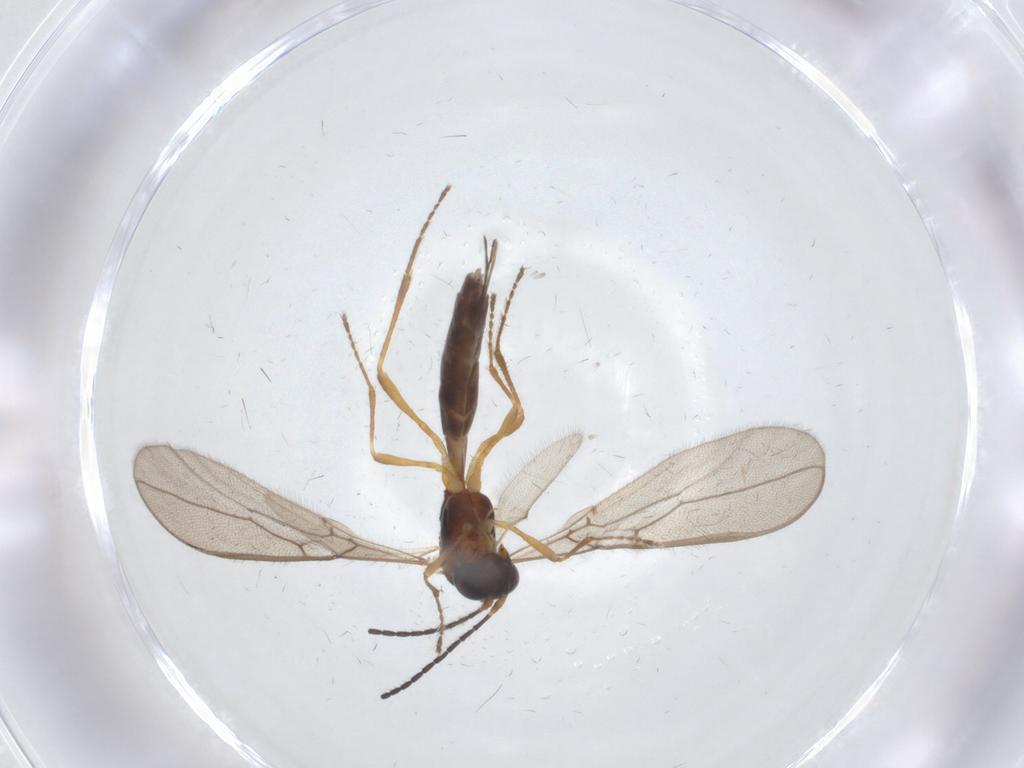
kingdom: Animalia
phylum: Arthropoda
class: Insecta
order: Hymenoptera
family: Braconidae
